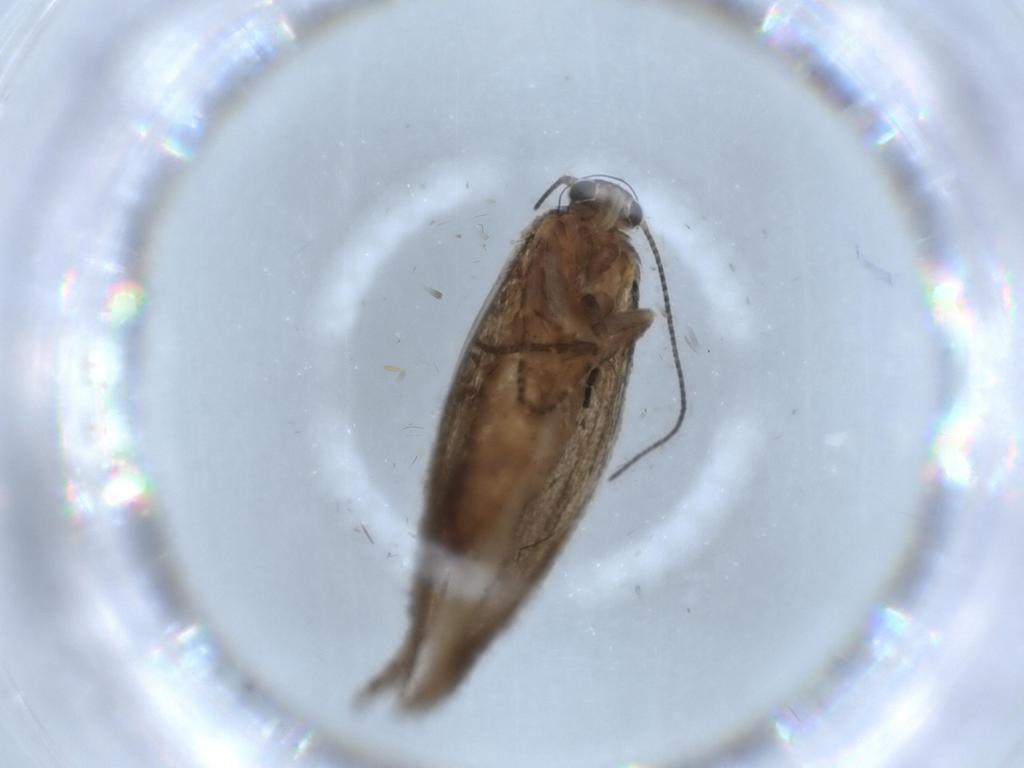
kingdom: Animalia
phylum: Arthropoda
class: Insecta
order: Lepidoptera
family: Oecophoridae
